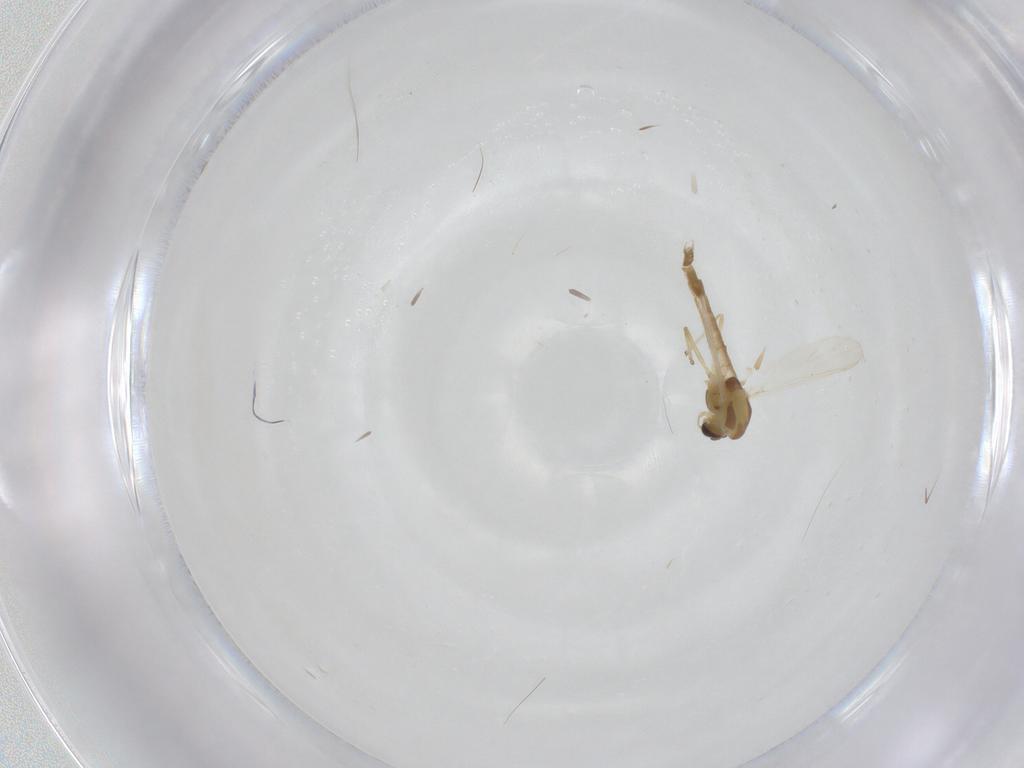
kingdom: Animalia
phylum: Arthropoda
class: Insecta
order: Diptera
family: Chironomidae
